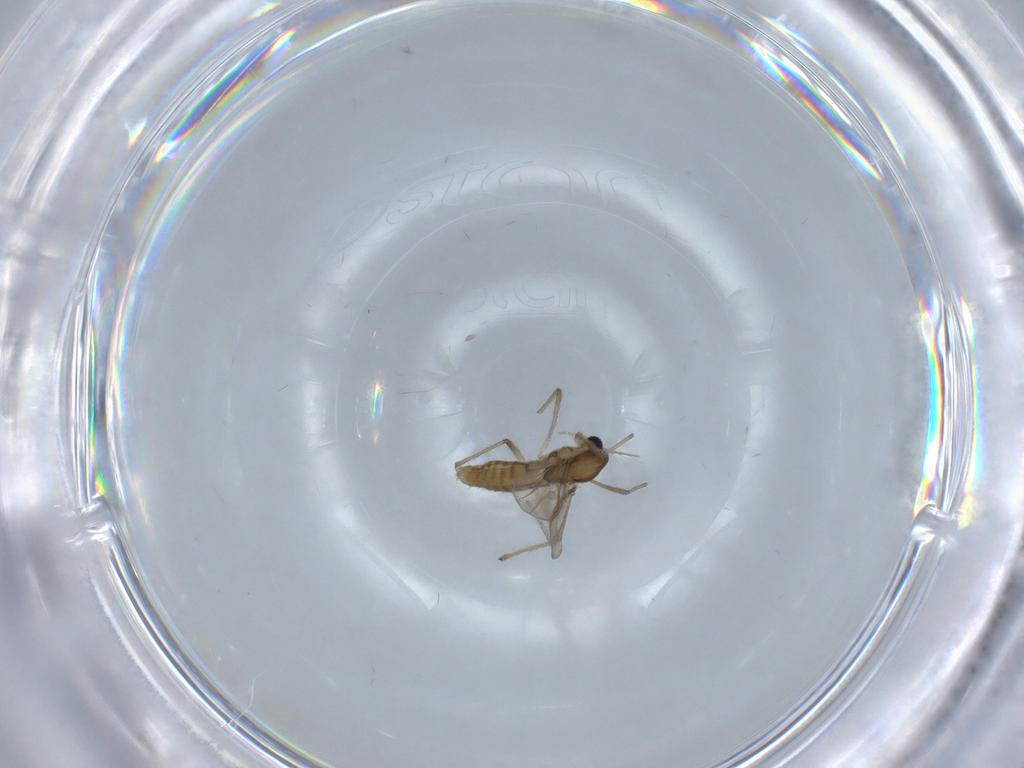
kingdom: Animalia
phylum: Arthropoda
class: Insecta
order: Diptera
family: Chironomidae
